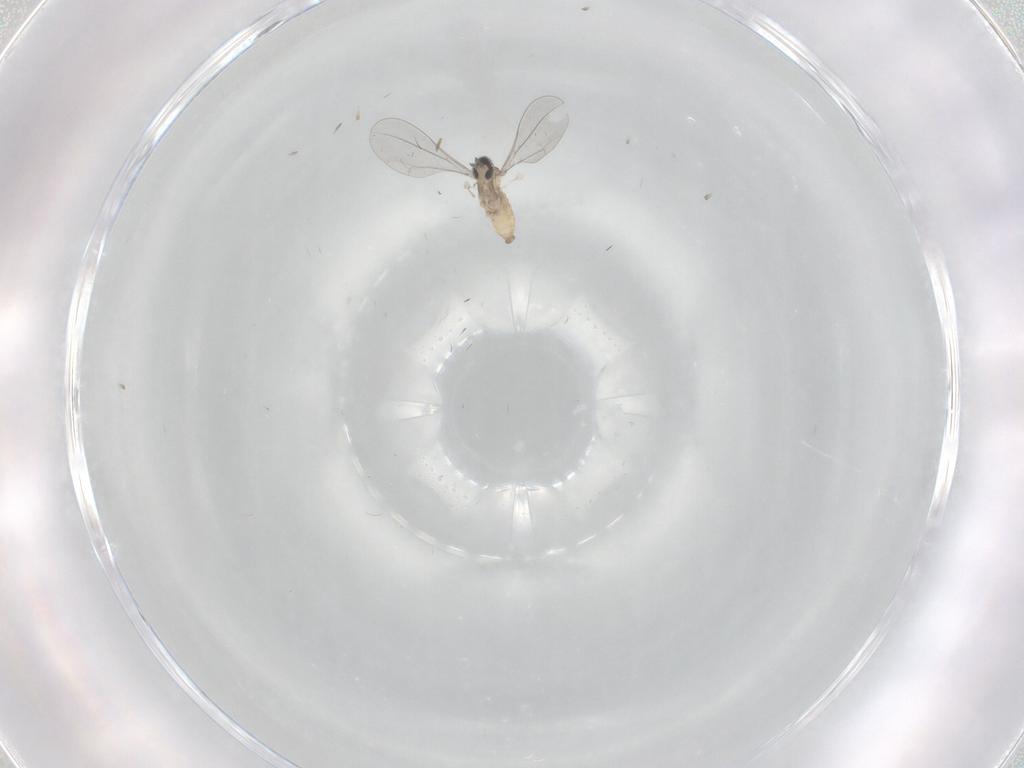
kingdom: Animalia
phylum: Arthropoda
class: Insecta
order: Diptera
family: Cecidomyiidae
